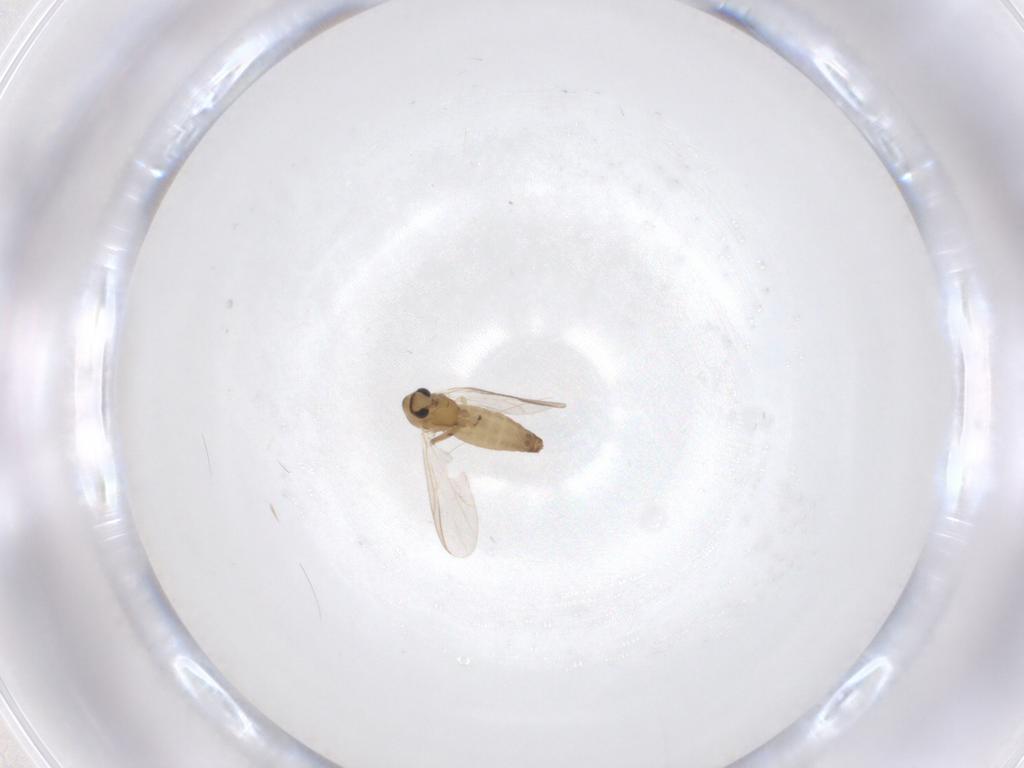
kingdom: Animalia
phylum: Arthropoda
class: Insecta
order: Diptera
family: Chironomidae
